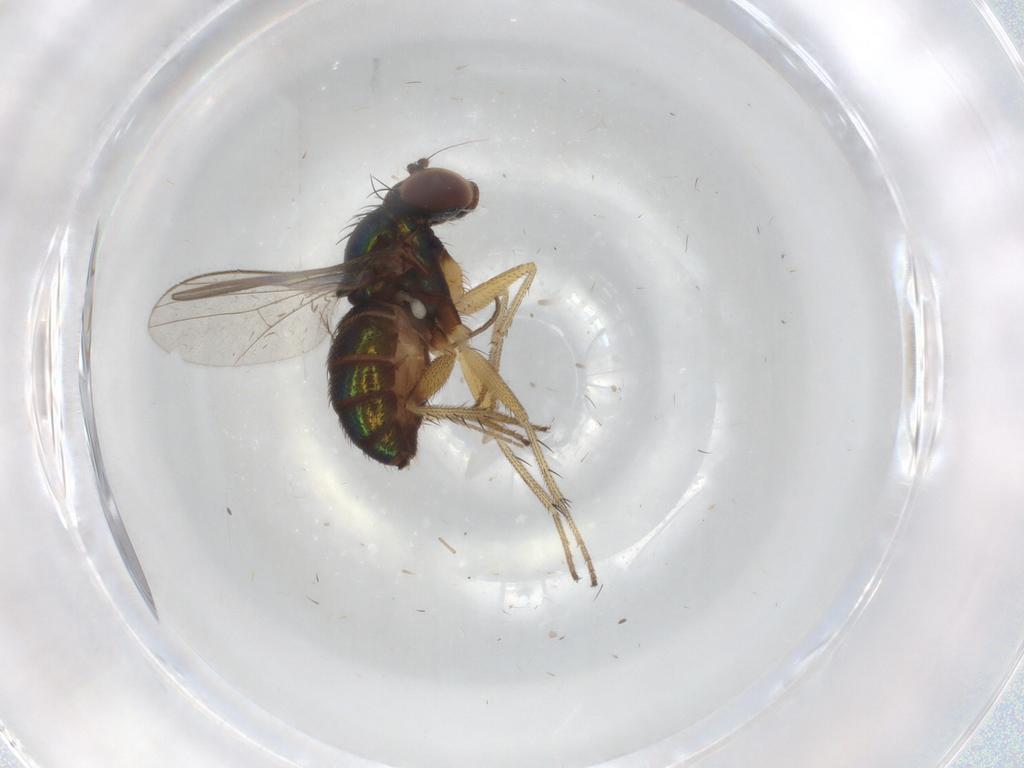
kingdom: Animalia
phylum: Arthropoda
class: Insecta
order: Diptera
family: Dolichopodidae
